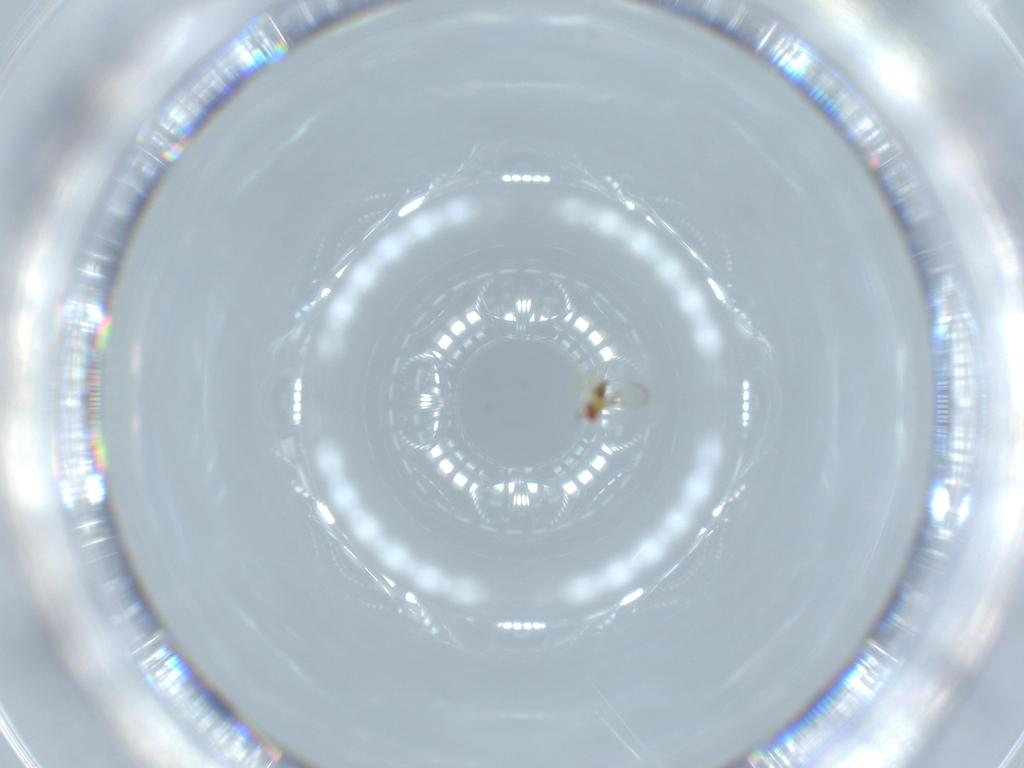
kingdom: Animalia
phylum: Arthropoda
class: Insecta
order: Hymenoptera
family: Trichogrammatidae
